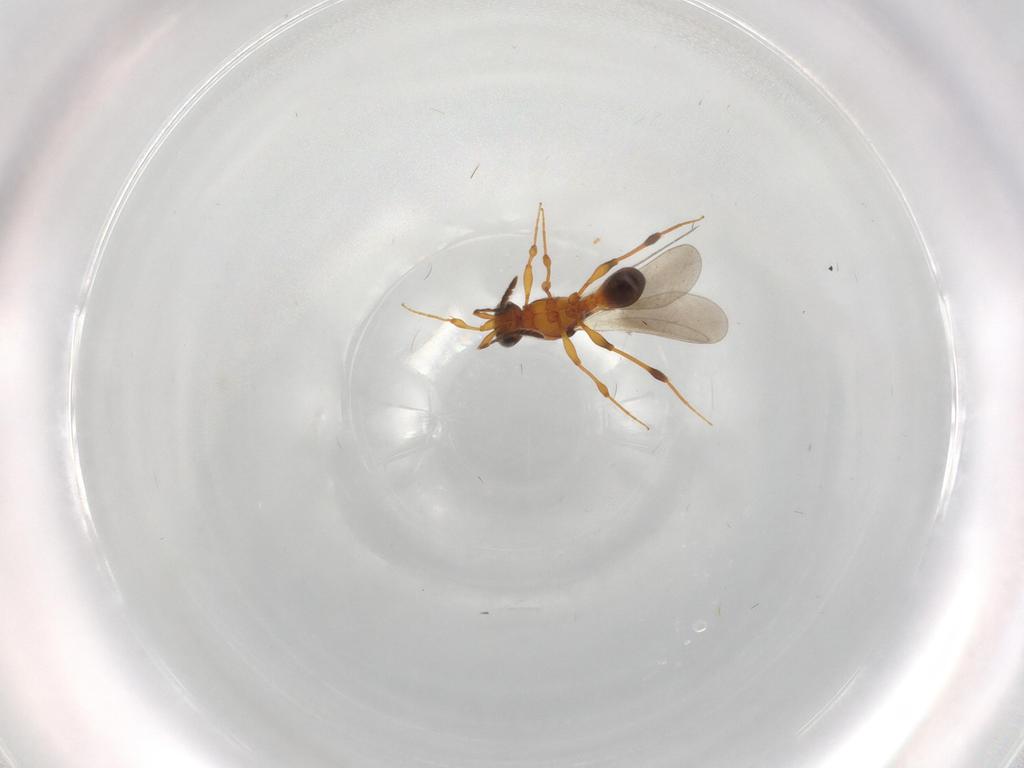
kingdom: Animalia
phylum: Arthropoda
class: Insecta
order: Hymenoptera
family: Platygastridae
